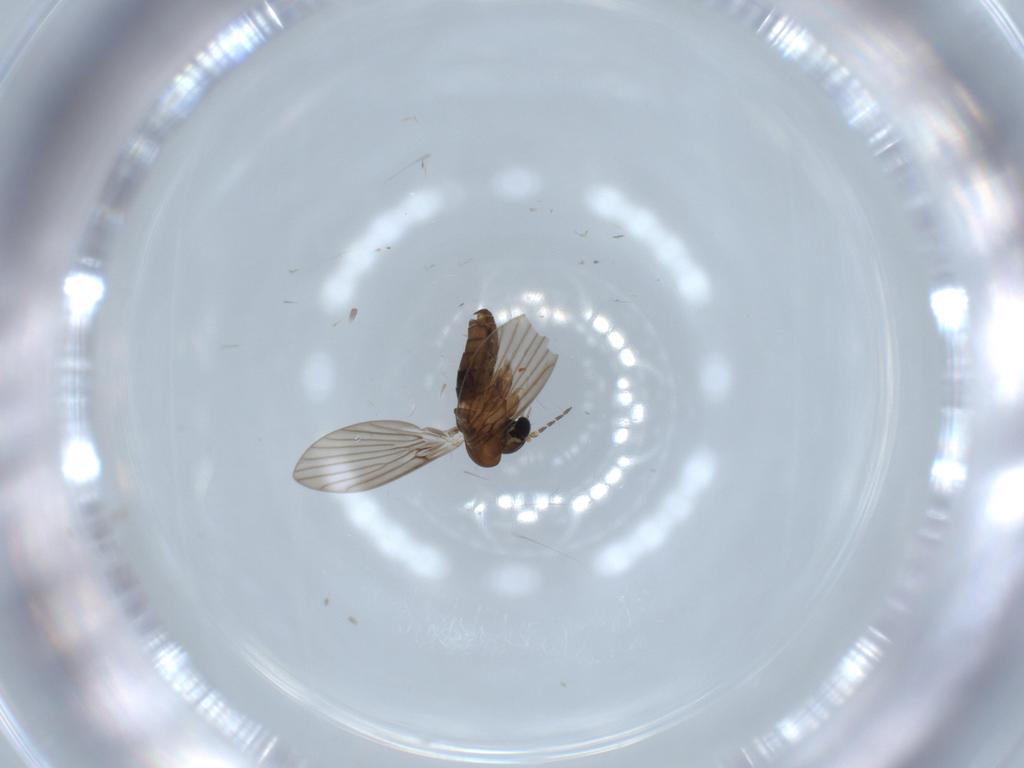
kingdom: Animalia
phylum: Arthropoda
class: Insecta
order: Diptera
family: Psychodidae
